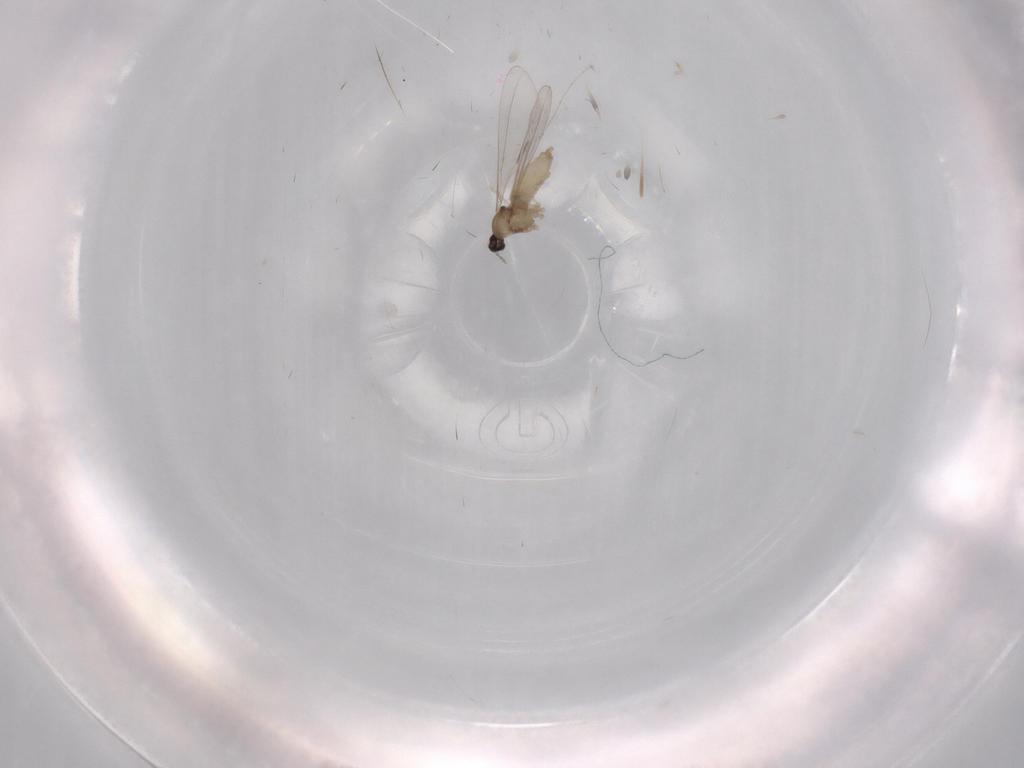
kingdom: Animalia
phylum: Arthropoda
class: Insecta
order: Diptera
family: Cecidomyiidae
